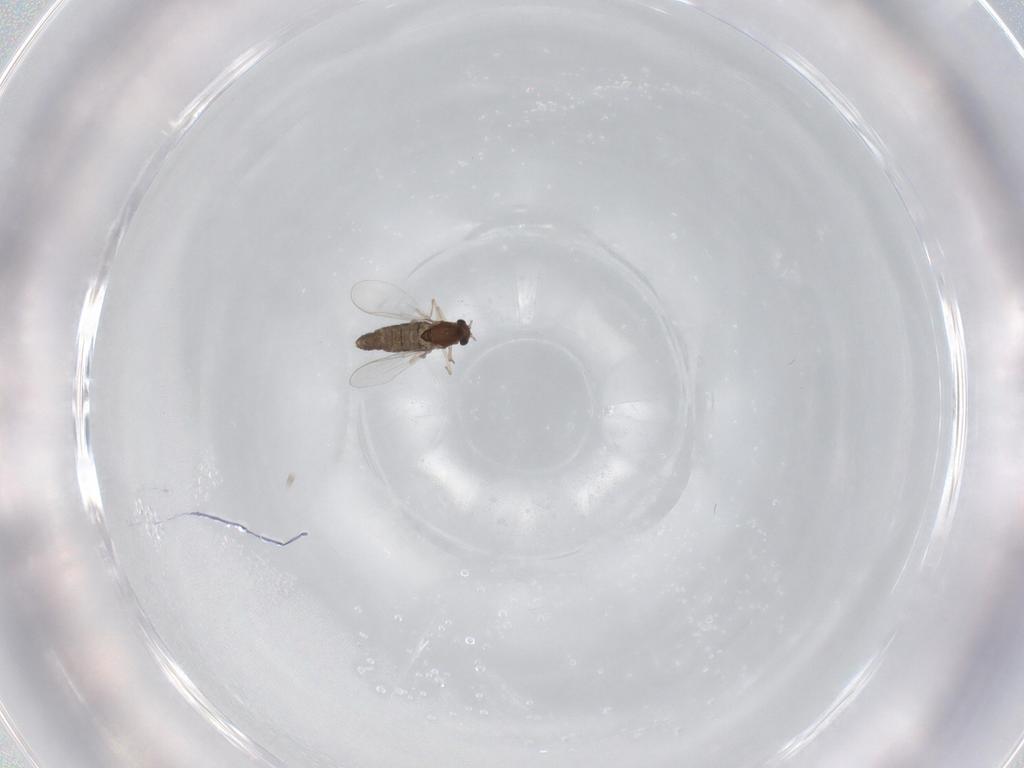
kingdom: Animalia
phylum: Arthropoda
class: Insecta
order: Diptera
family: Chironomidae
